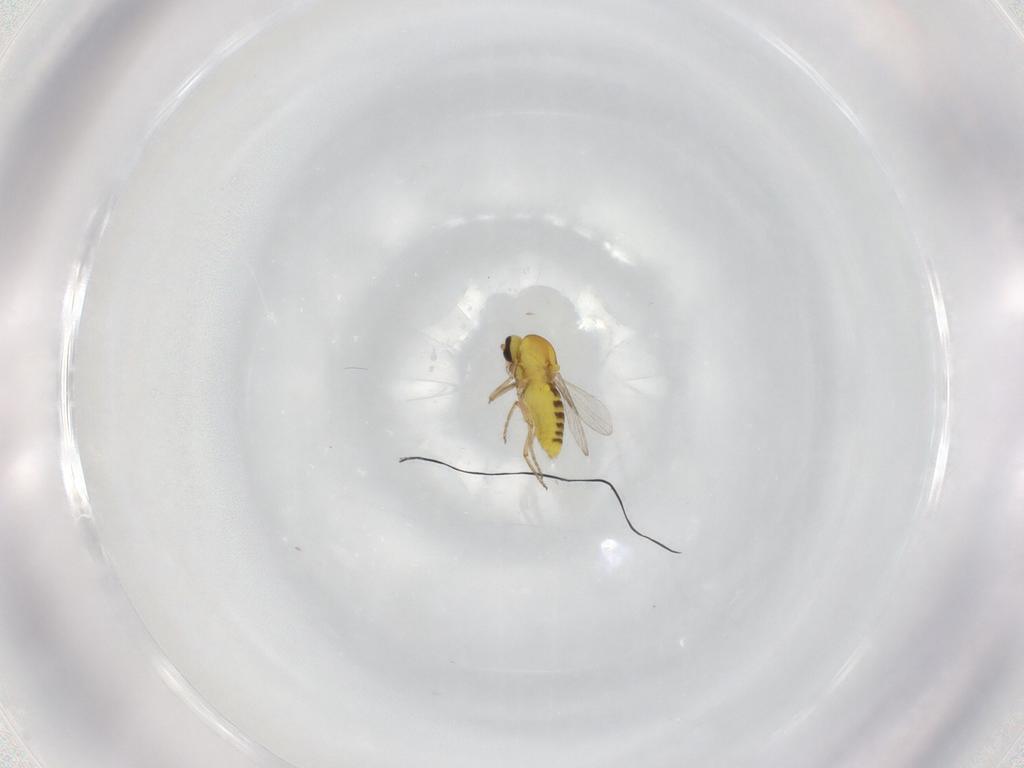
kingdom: Animalia
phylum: Arthropoda
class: Insecta
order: Diptera
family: Ceratopogonidae
